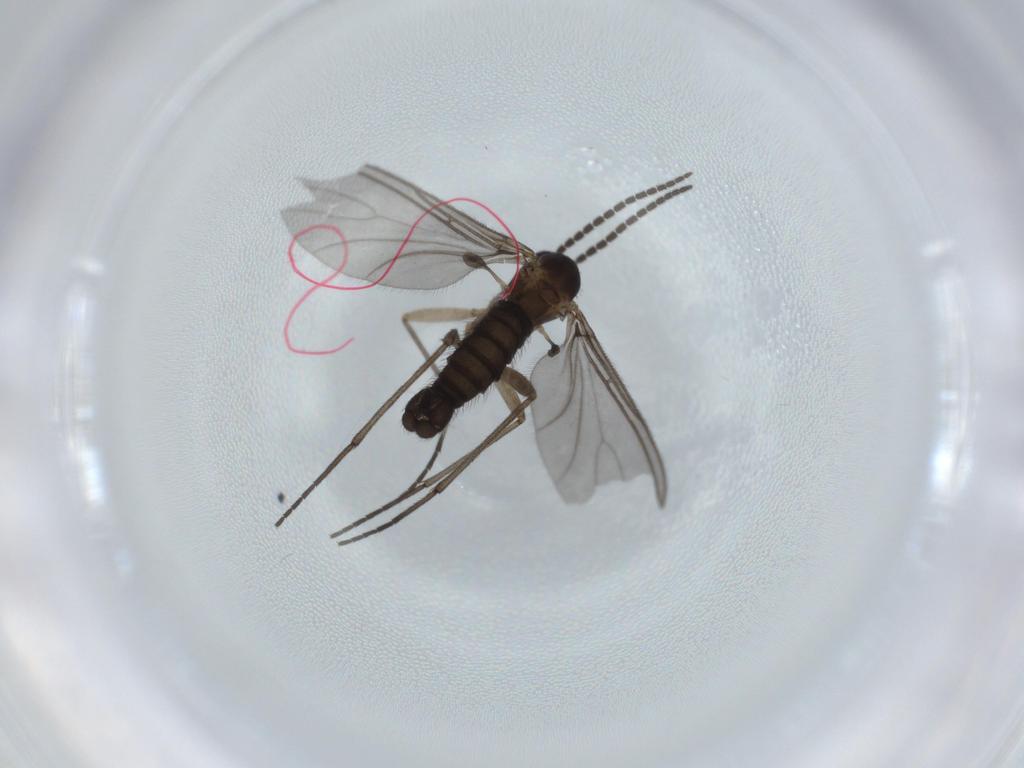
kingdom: Animalia
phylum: Arthropoda
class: Insecta
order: Diptera
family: Sciaridae
